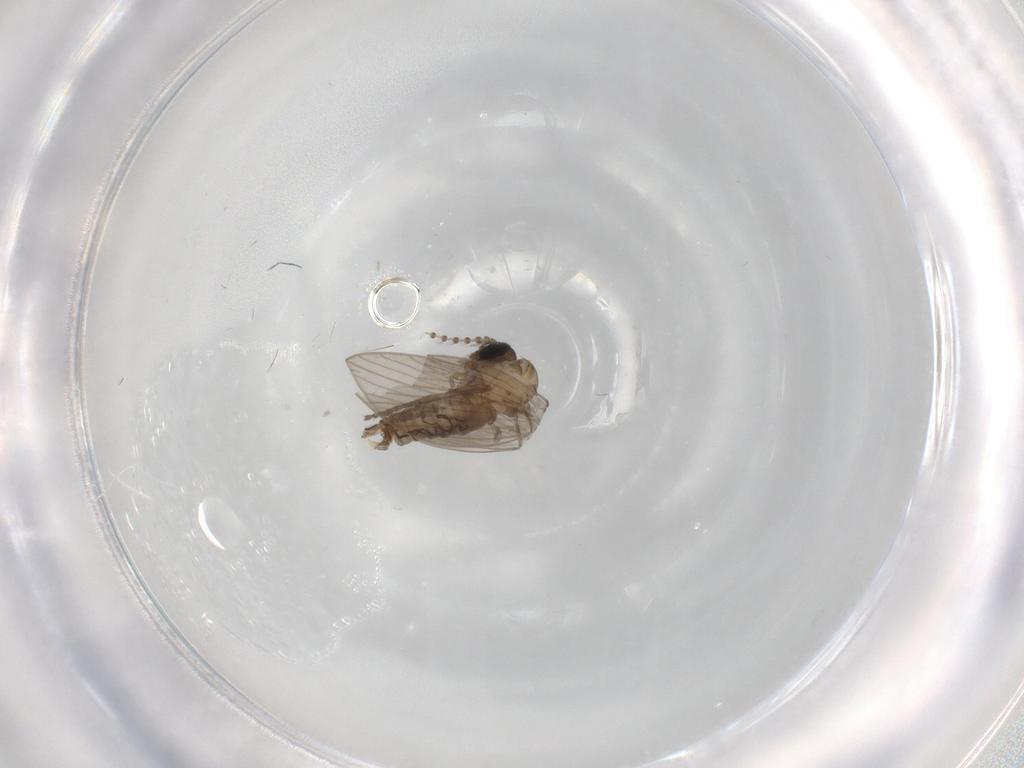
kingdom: Animalia
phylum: Arthropoda
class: Insecta
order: Diptera
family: Psychodidae
